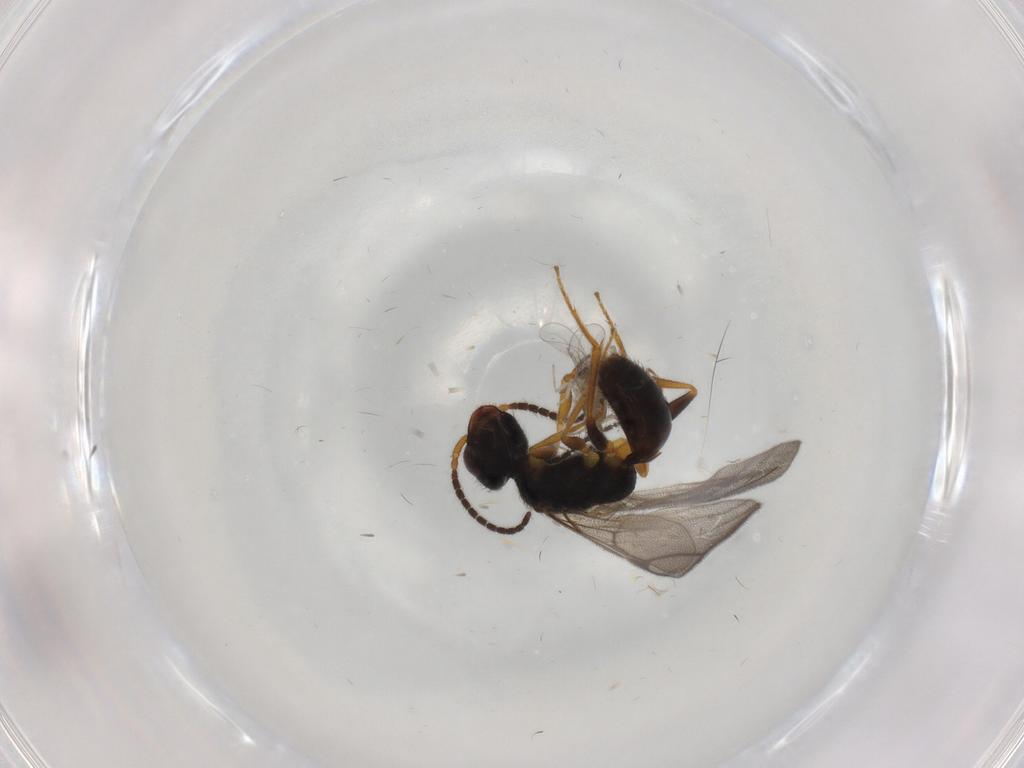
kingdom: Animalia
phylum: Arthropoda
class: Insecta
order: Hymenoptera
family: Bethylidae
